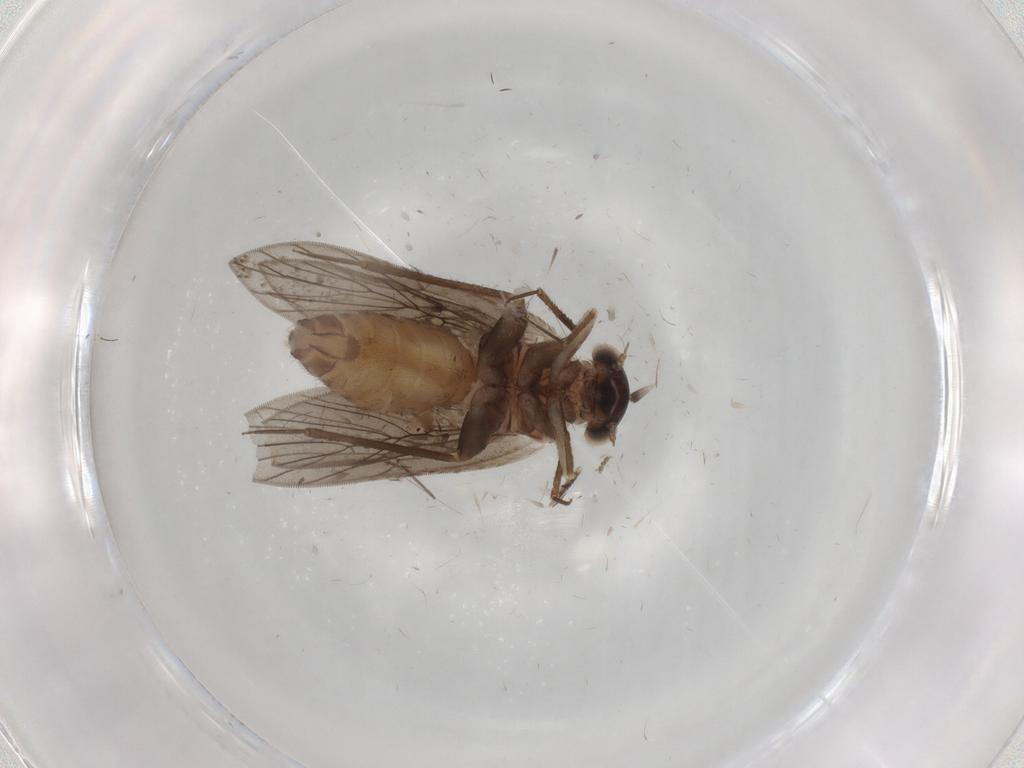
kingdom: Animalia
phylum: Arthropoda
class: Insecta
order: Psocodea
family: Lepidopsocidae
